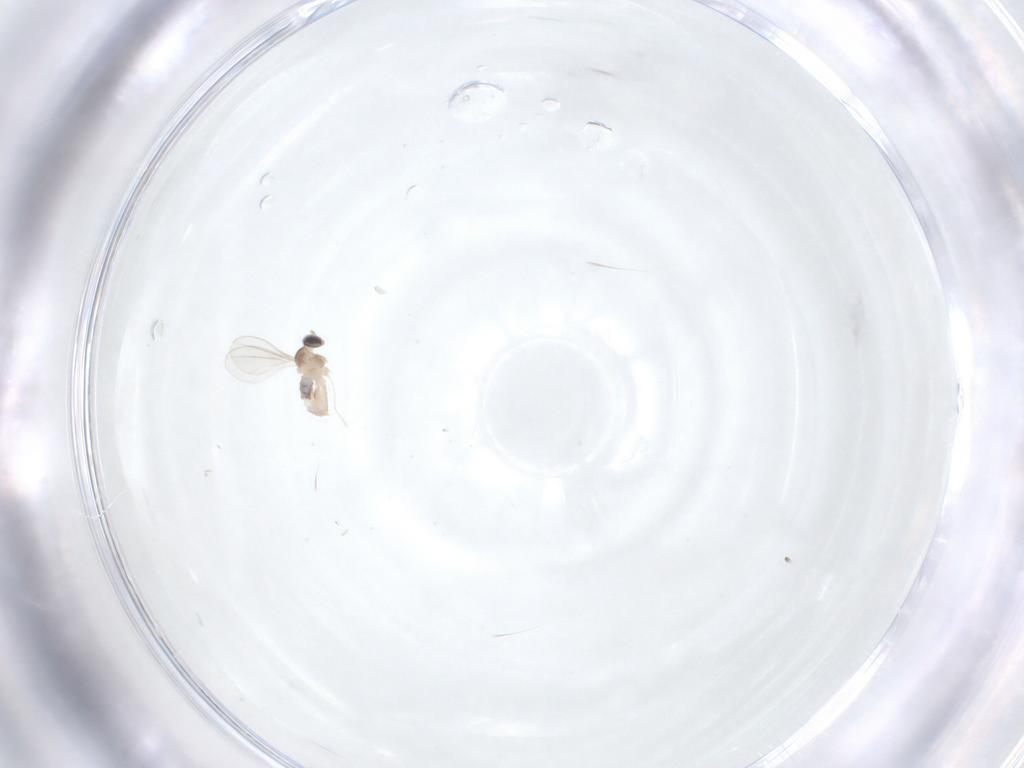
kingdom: Animalia
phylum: Arthropoda
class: Insecta
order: Diptera
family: Cecidomyiidae
